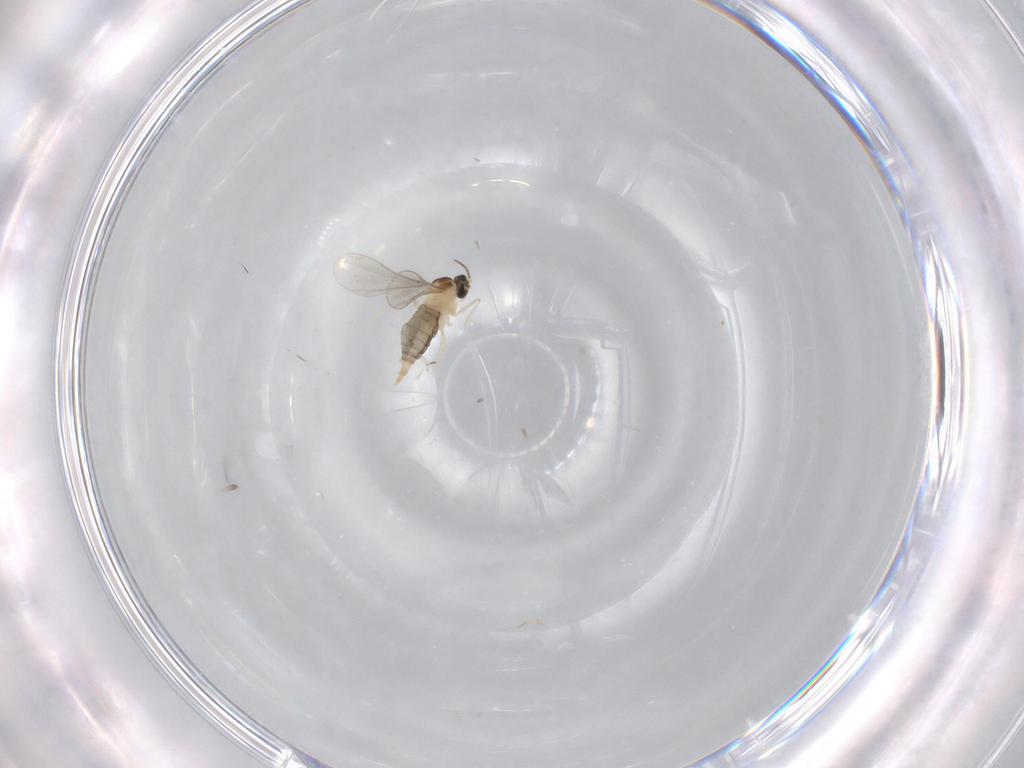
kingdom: Animalia
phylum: Arthropoda
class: Insecta
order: Diptera
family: Cecidomyiidae
